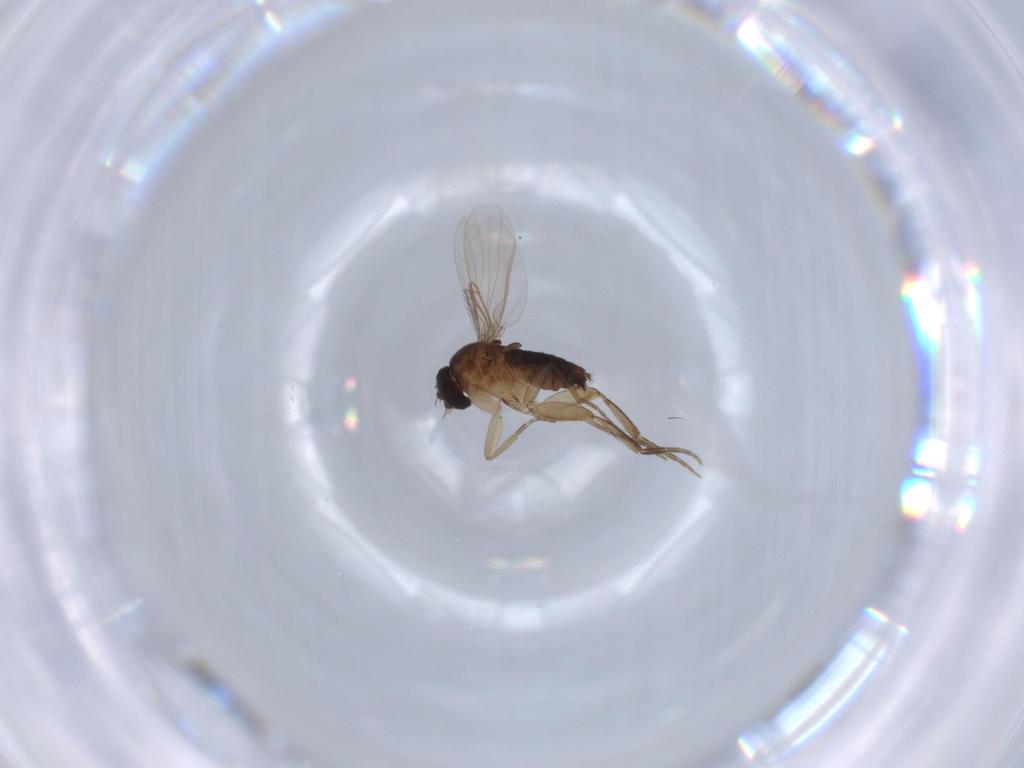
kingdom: Animalia
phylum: Arthropoda
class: Insecta
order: Diptera
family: Phoridae
